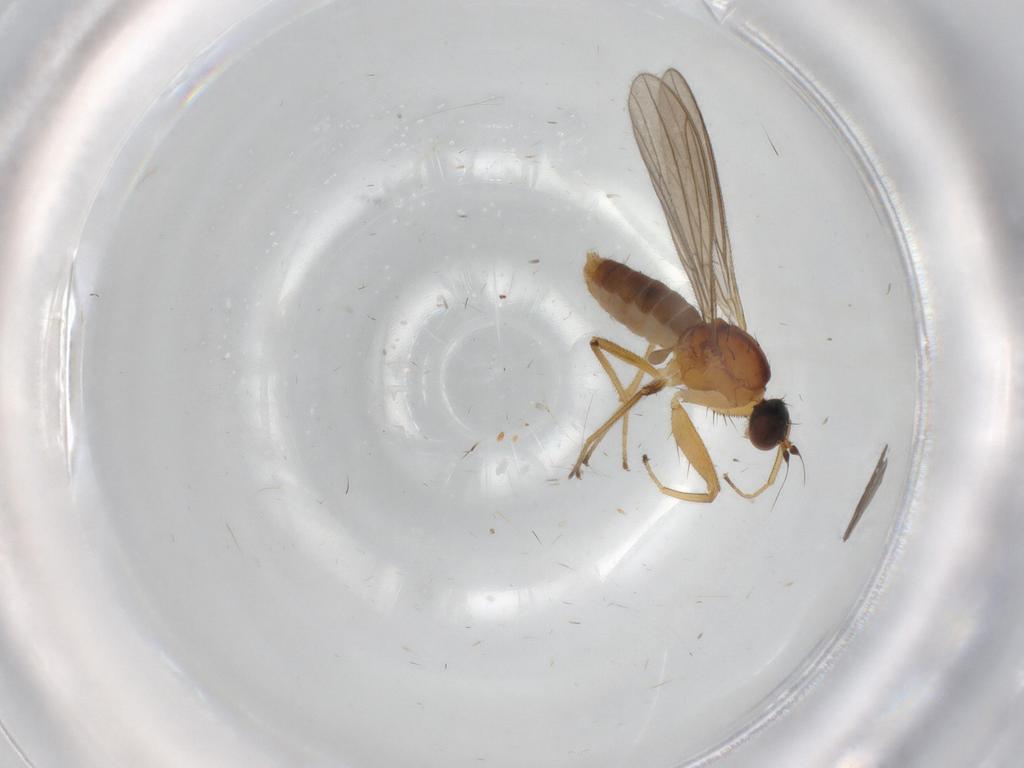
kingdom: Animalia
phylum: Arthropoda
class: Insecta
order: Diptera
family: Empididae
